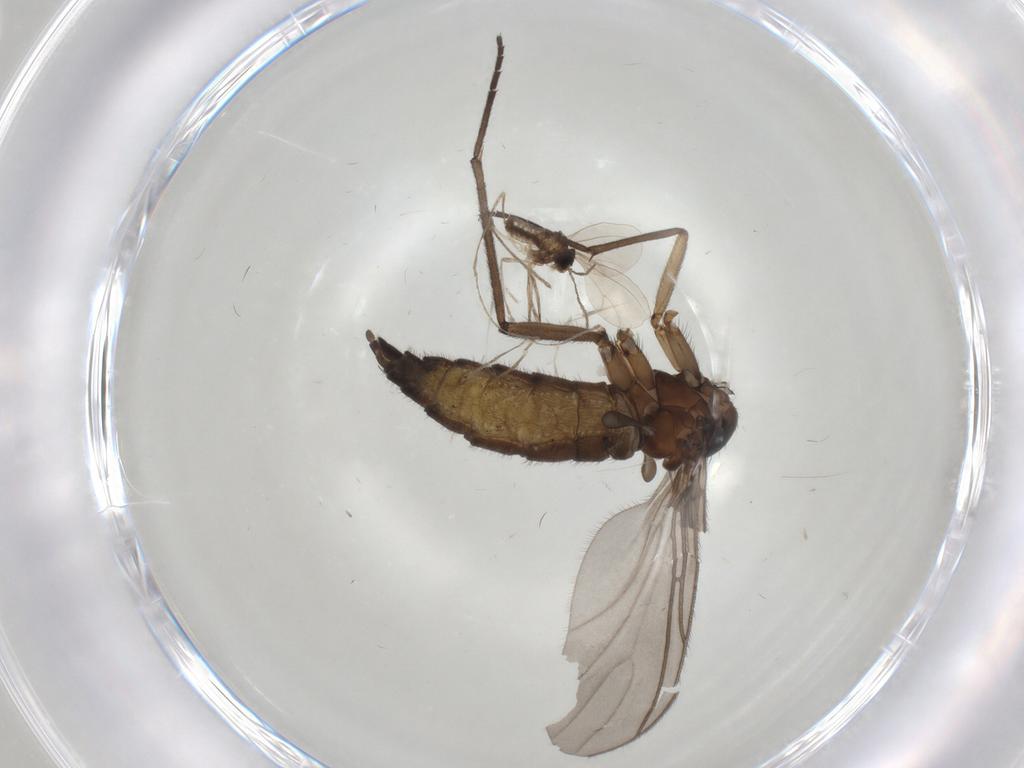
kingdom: Animalia
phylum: Arthropoda
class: Insecta
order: Diptera
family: Sciaridae
